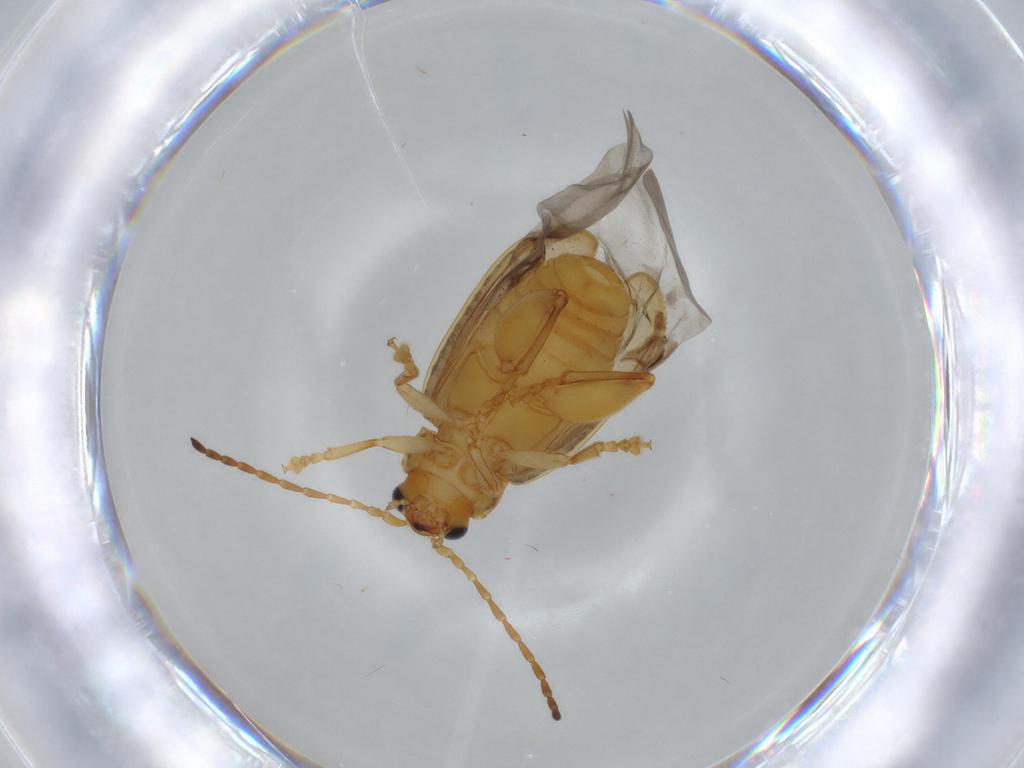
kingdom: Animalia
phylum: Arthropoda
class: Insecta
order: Coleoptera
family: Chrysomelidae
